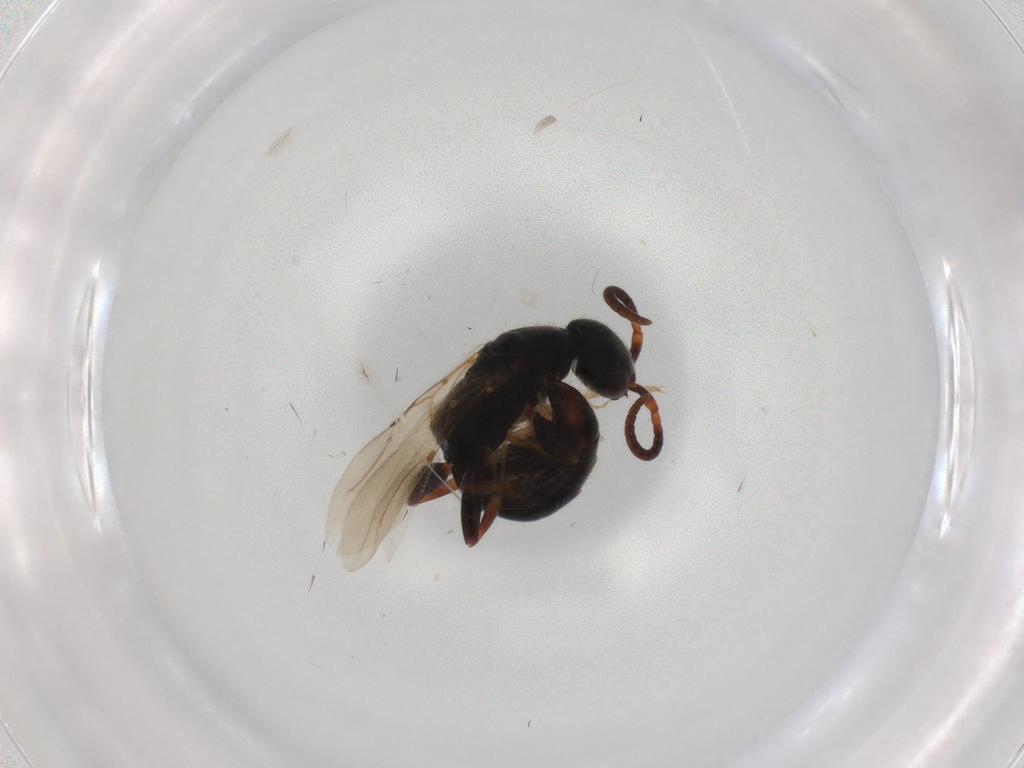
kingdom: Animalia
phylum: Arthropoda
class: Insecta
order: Hymenoptera
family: Bethylidae
